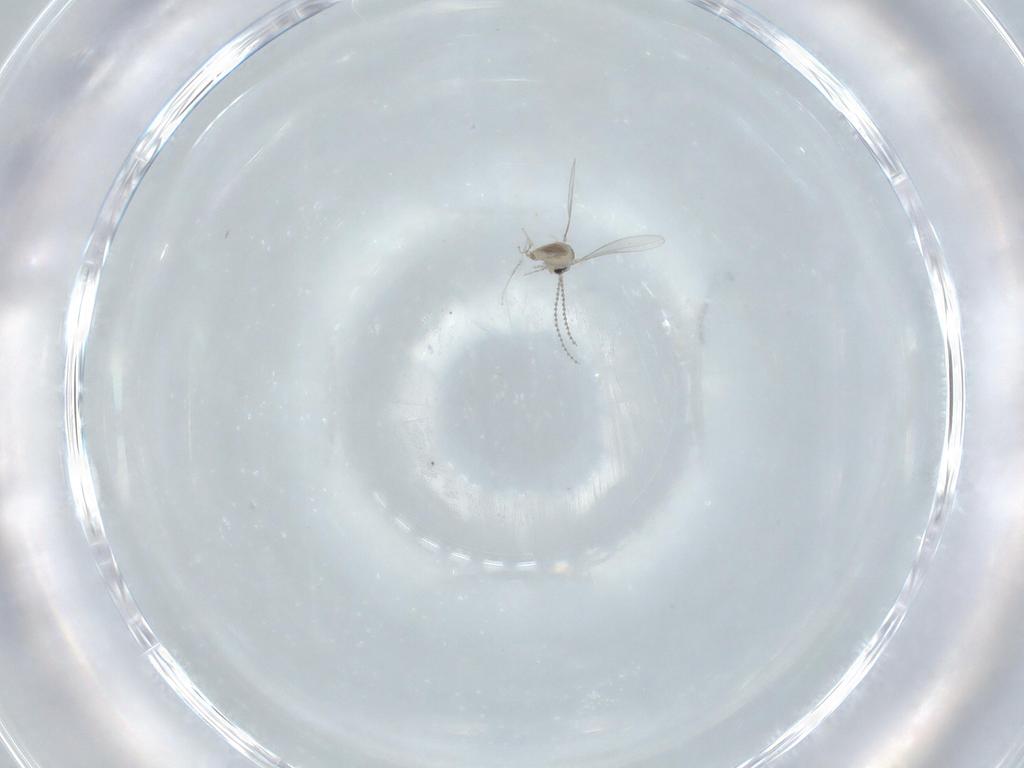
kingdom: Animalia
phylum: Arthropoda
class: Insecta
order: Diptera
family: Chironomidae
